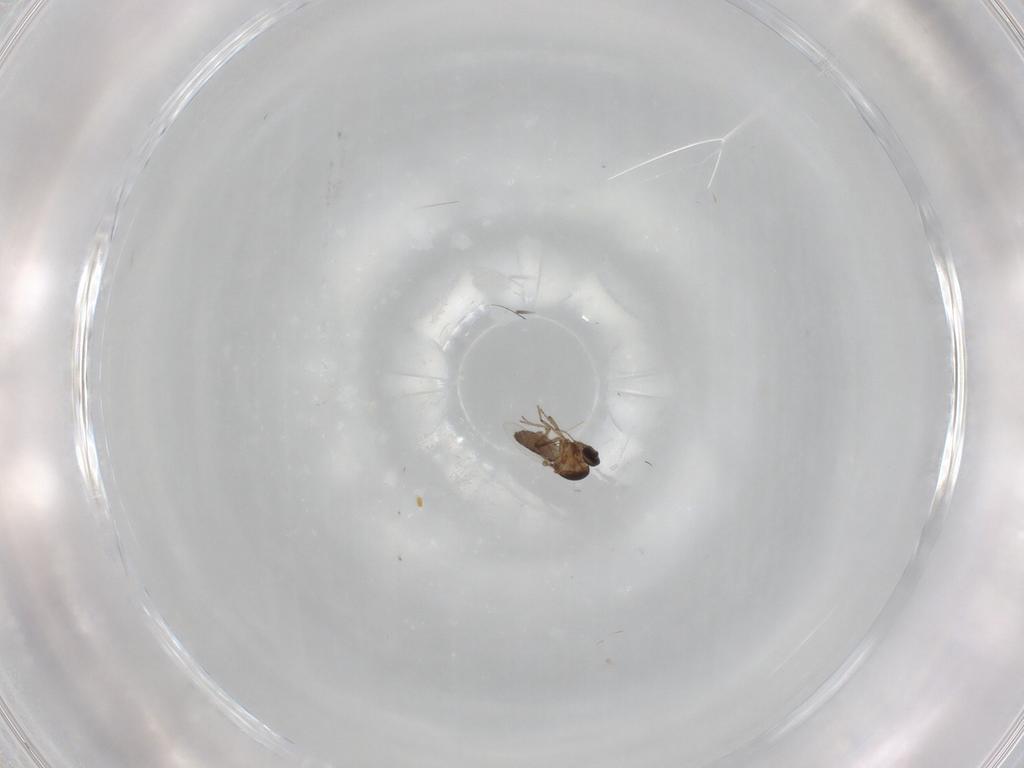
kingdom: Animalia
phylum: Arthropoda
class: Insecta
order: Diptera
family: Ceratopogonidae
